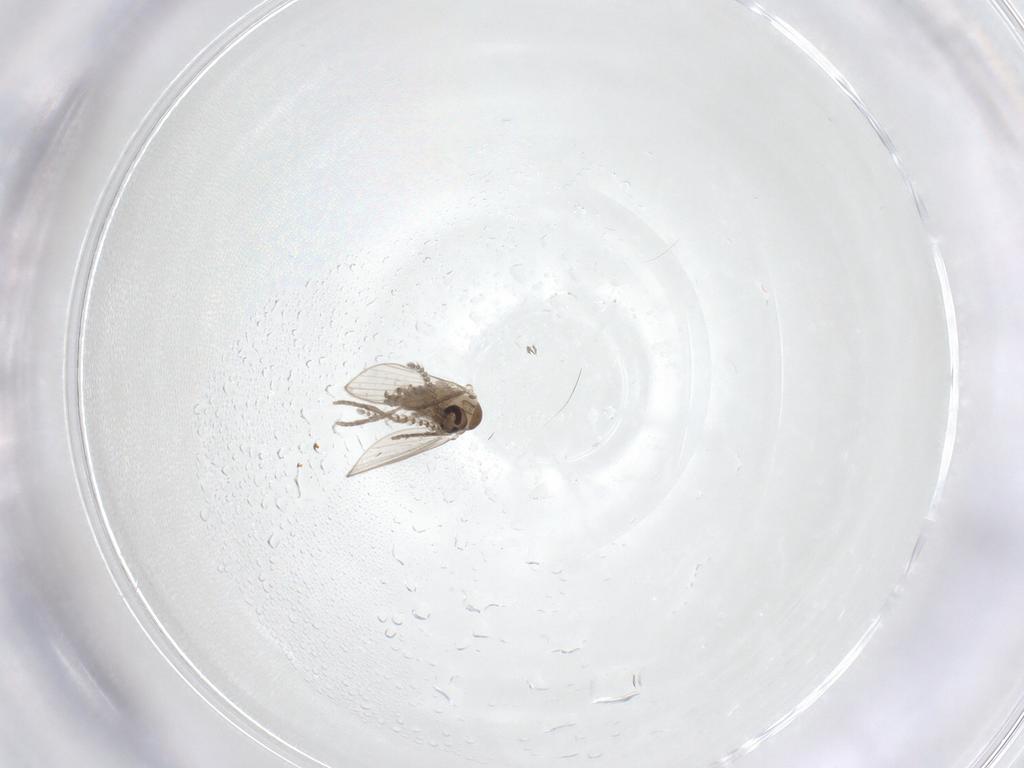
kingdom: Animalia
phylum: Arthropoda
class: Insecta
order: Diptera
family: Psychodidae
